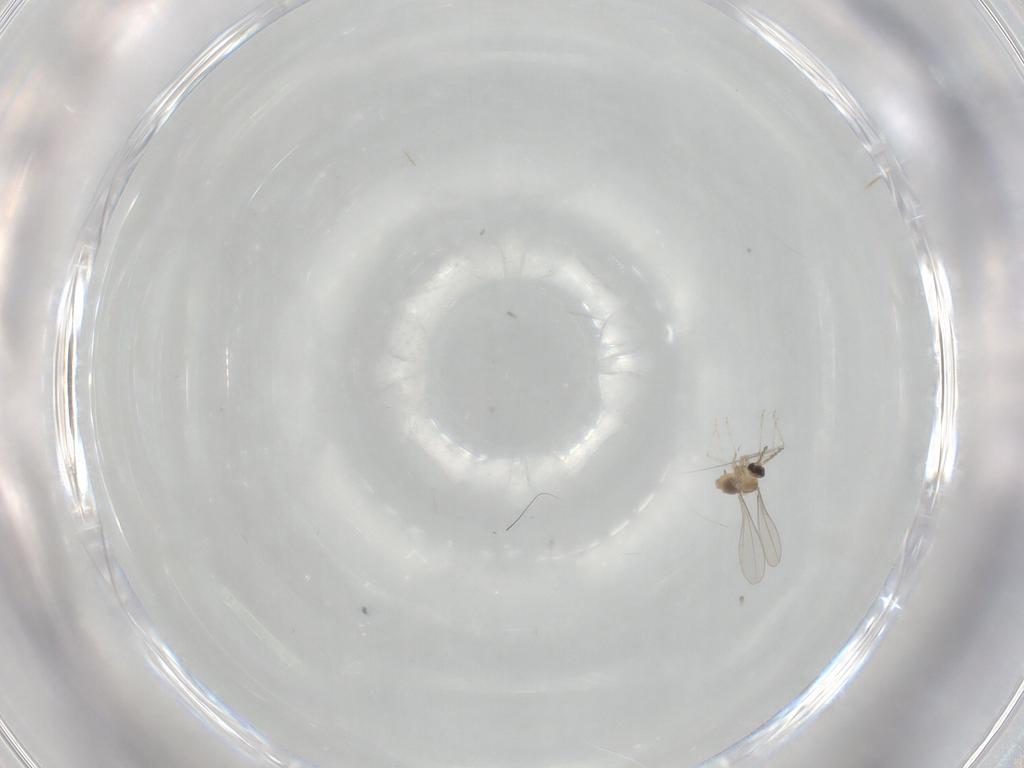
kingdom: Animalia
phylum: Arthropoda
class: Insecta
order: Diptera
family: Cecidomyiidae
